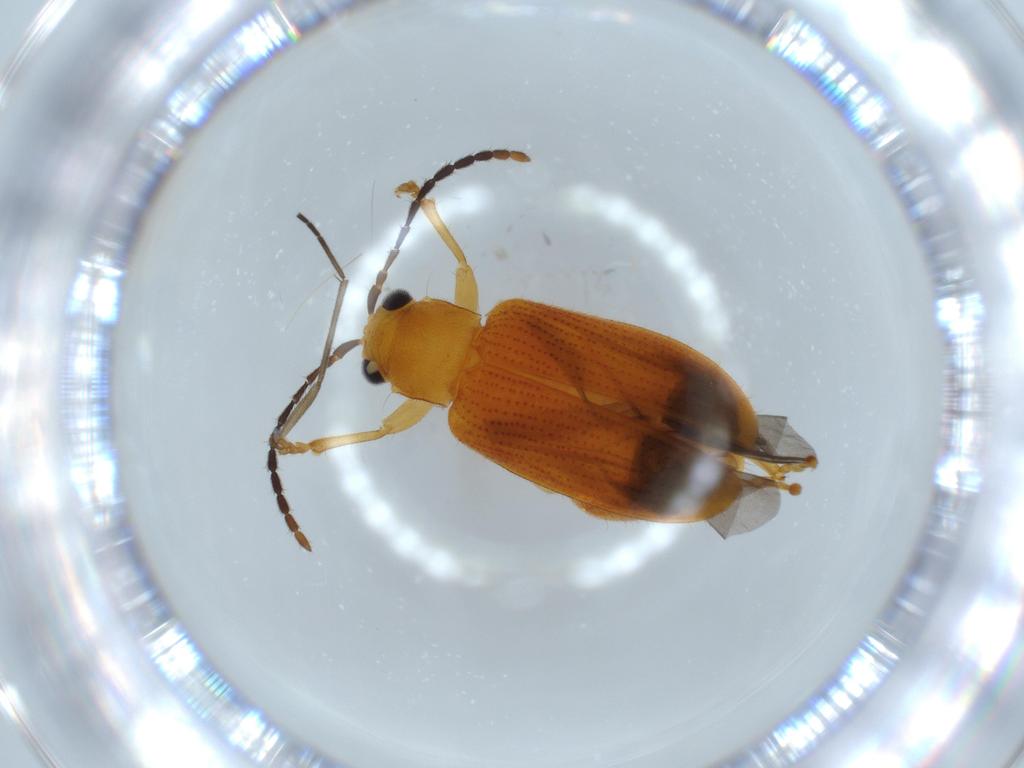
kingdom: Animalia
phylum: Arthropoda
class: Insecta
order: Coleoptera
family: Chrysomelidae
